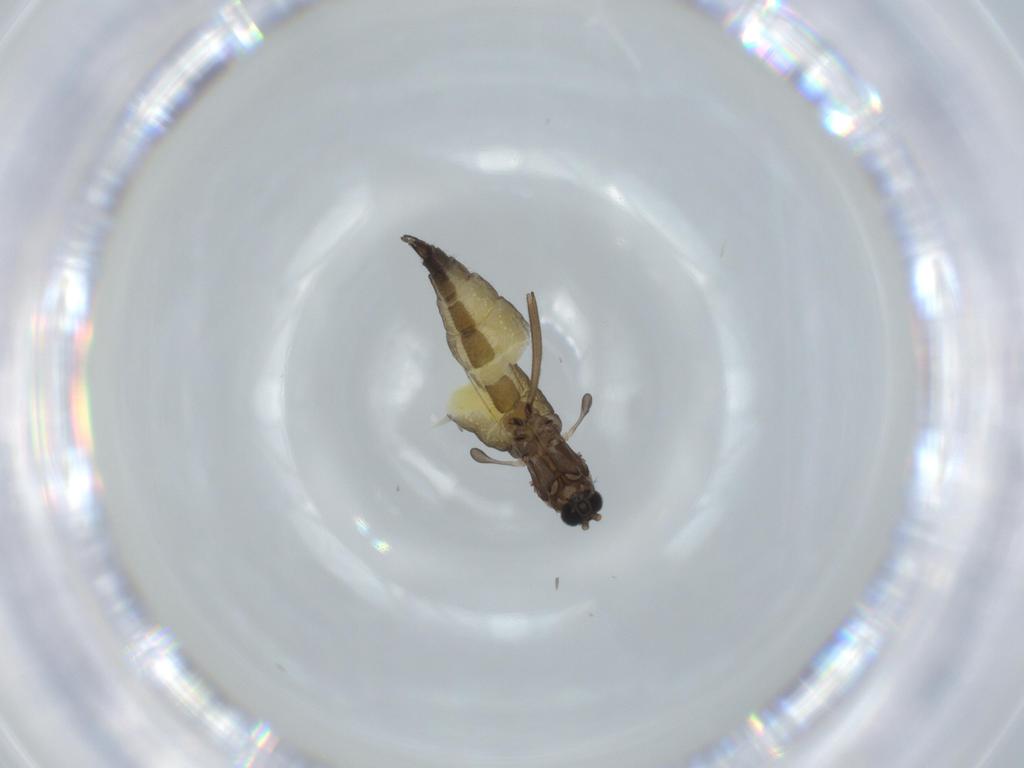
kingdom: Animalia
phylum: Arthropoda
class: Insecta
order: Diptera
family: Sciaridae
